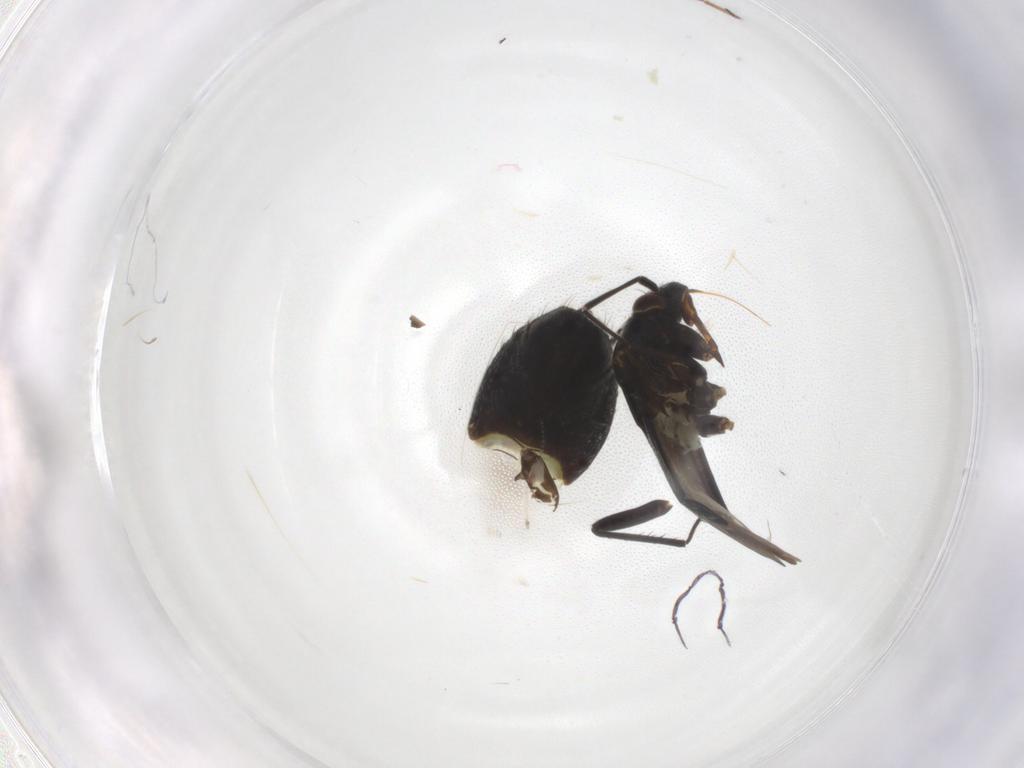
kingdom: Animalia
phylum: Arthropoda
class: Insecta
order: Hemiptera
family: Miridae
